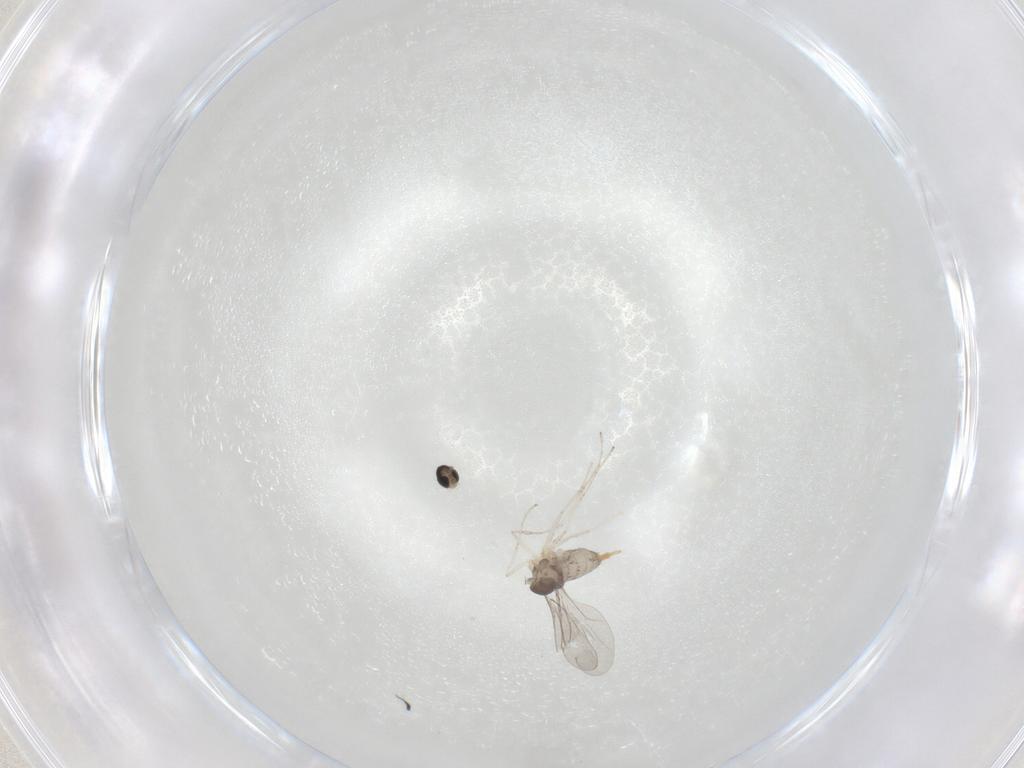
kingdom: Animalia
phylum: Arthropoda
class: Insecta
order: Diptera
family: Cecidomyiidae
